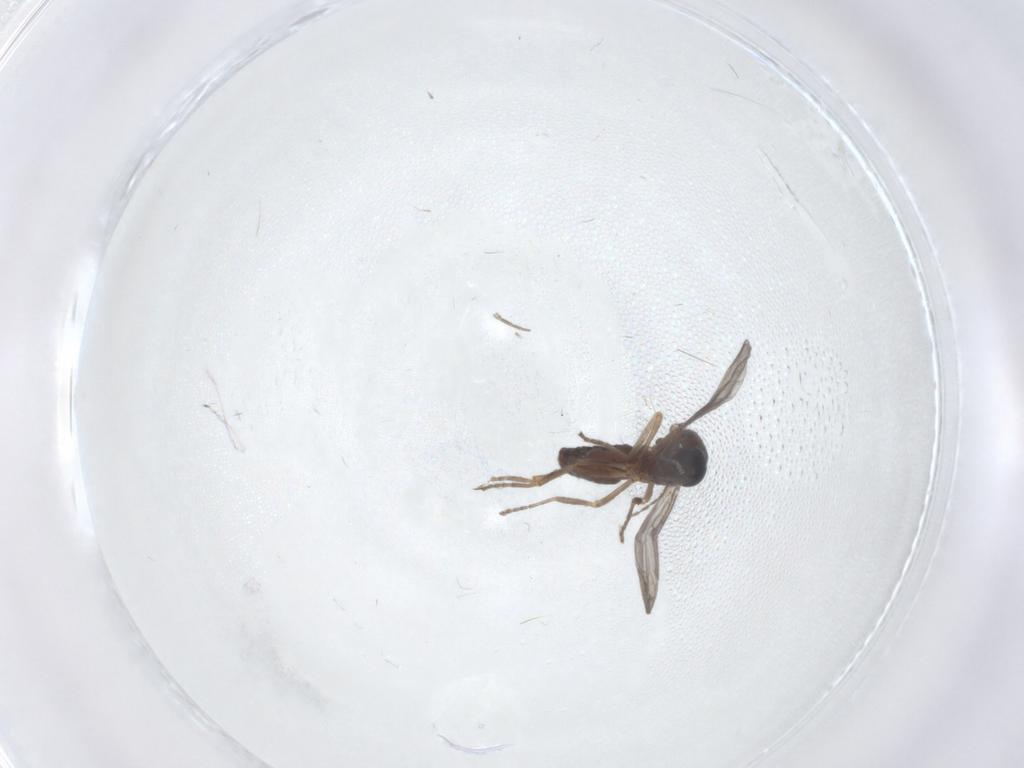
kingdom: Animalia
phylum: Arthropoda
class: Insecta
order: Diptera
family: Ceratopogonidae
